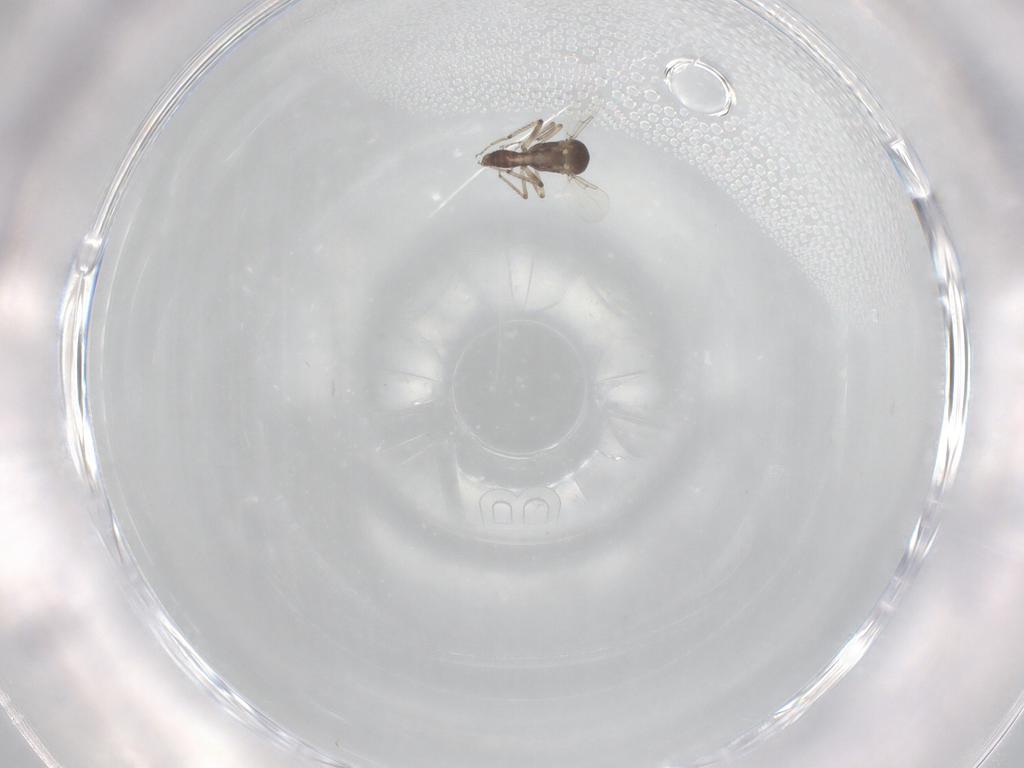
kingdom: Animalia
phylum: Arthropoda
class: Insecta
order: Diptera
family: Ceratopogonidae
